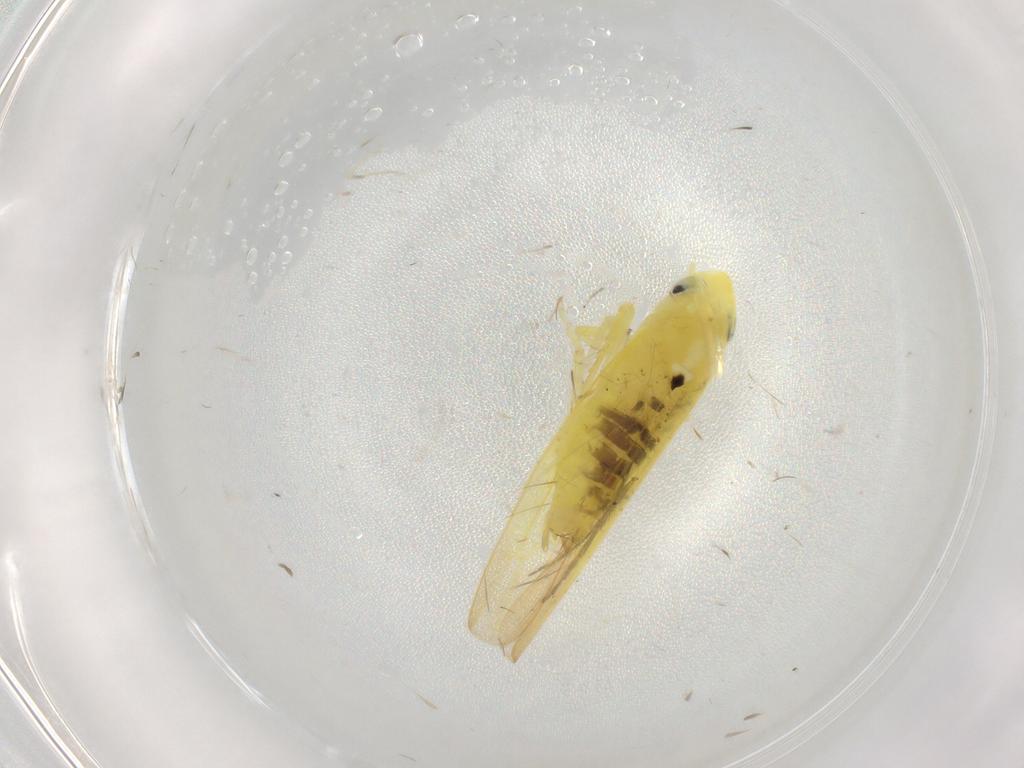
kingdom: Animalia
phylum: Arthropoda
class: Insecta
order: Hemiptera
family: Cicadellidae
